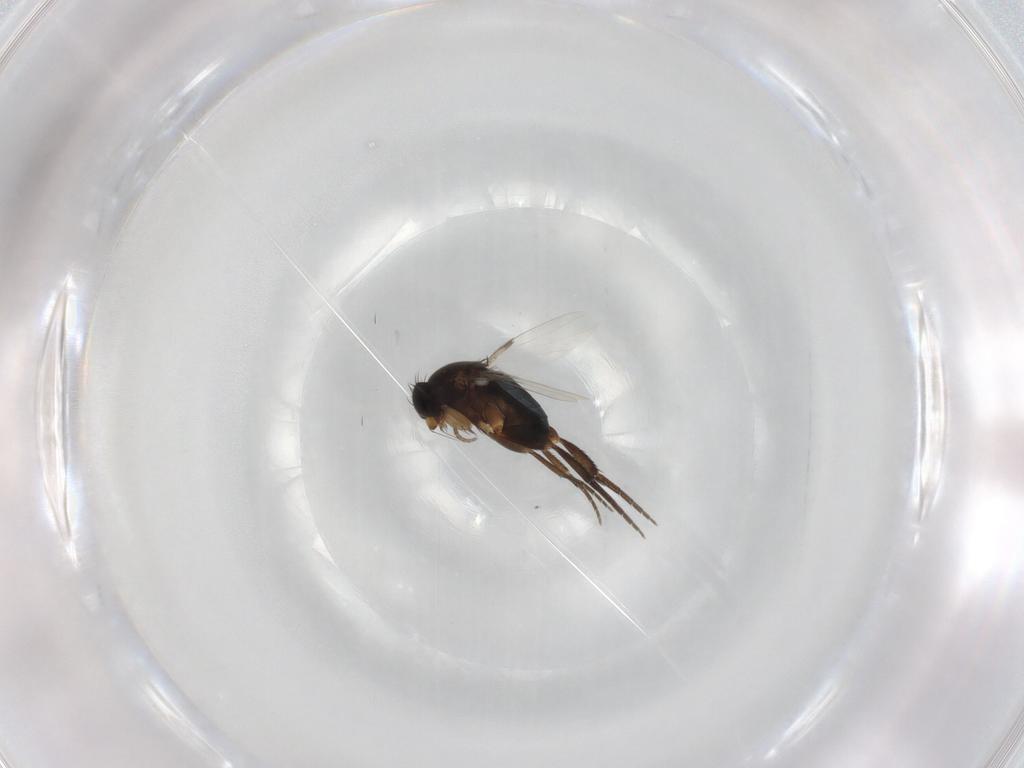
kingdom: Animalia
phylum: Arthropoda
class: Insecta
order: Diptera
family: Phoridae
